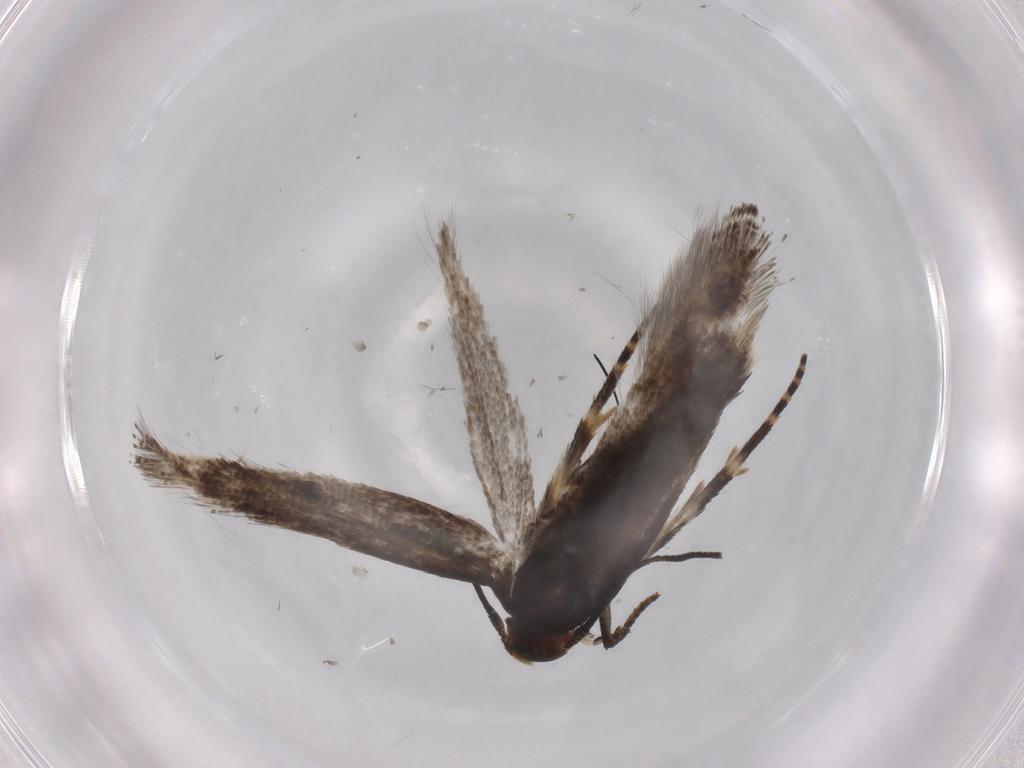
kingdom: Animalia
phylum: Arthropoda
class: Insecta
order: Lepidoptera
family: Momphidae
